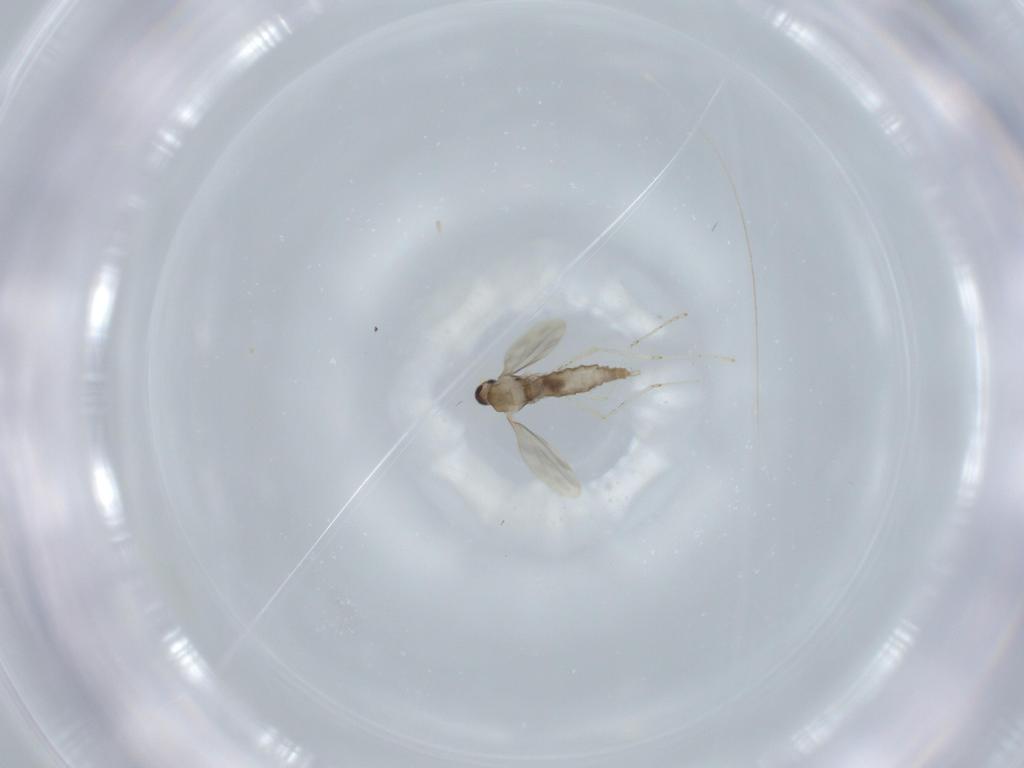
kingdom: Animalia
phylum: Arthropoda
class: Insecta
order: Diptera
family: Cecidomyiidae
